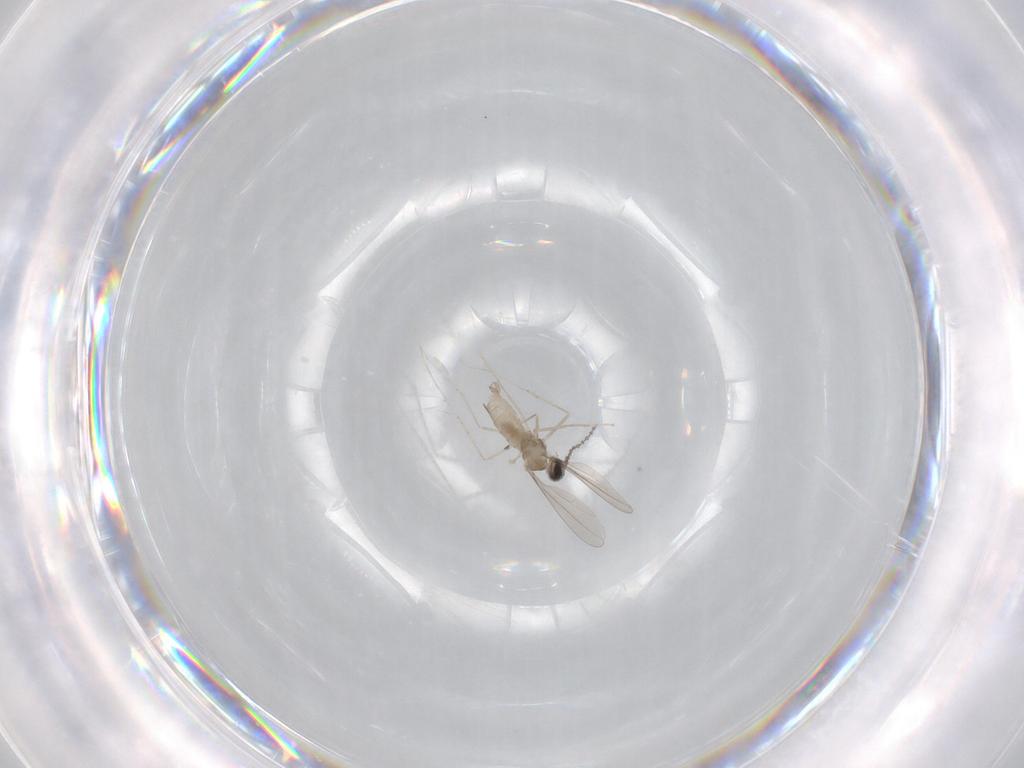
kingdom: Animalia
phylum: Arthropoda
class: Insecta
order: Diptera
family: Cecidomyiidae
